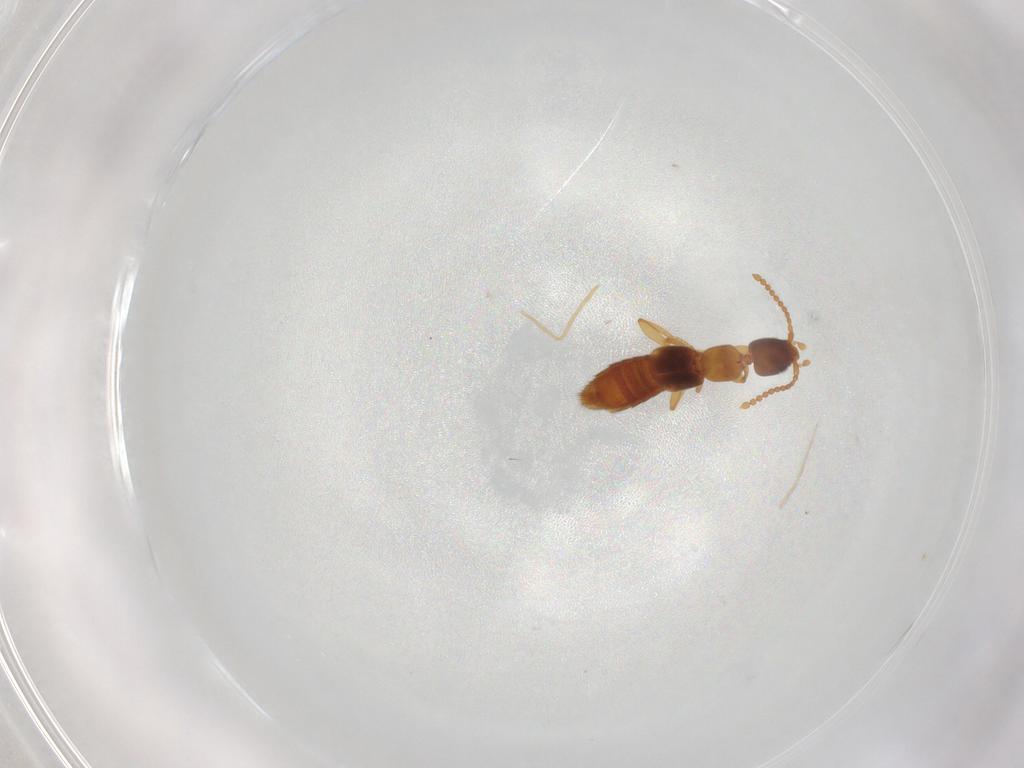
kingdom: Animalia
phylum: Arthropoda
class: Insecta
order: Coleoptera
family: Staphylinidae
